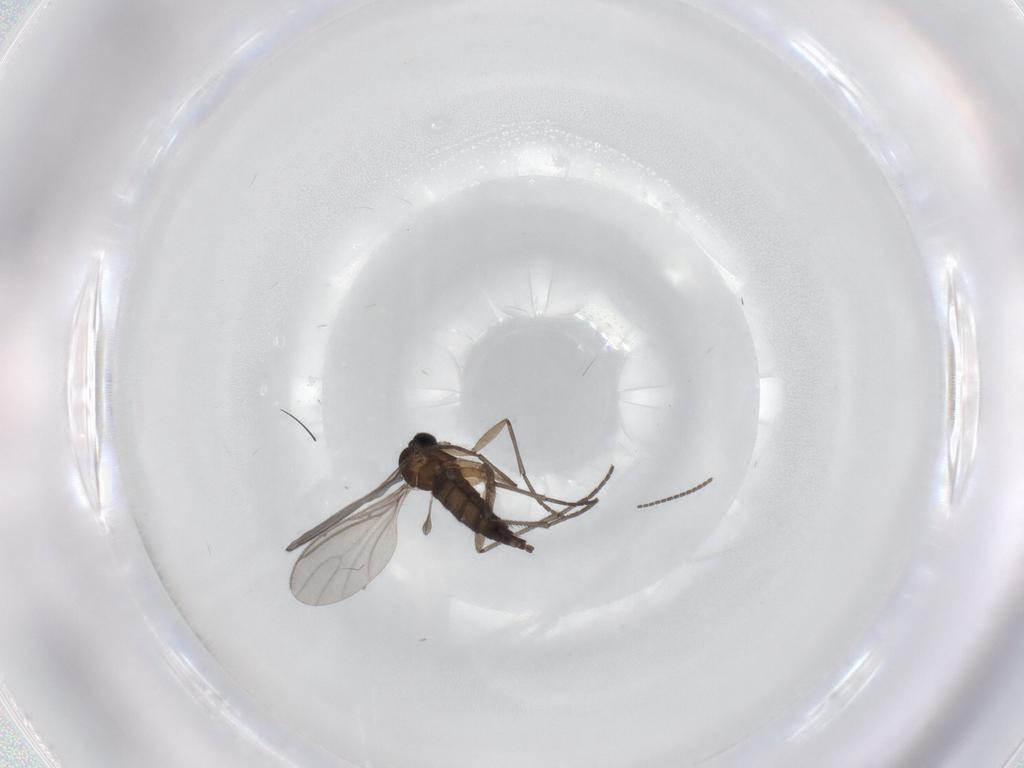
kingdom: Animalia
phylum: Arthropoda
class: Insecta
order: Diptera
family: Sciaridae
